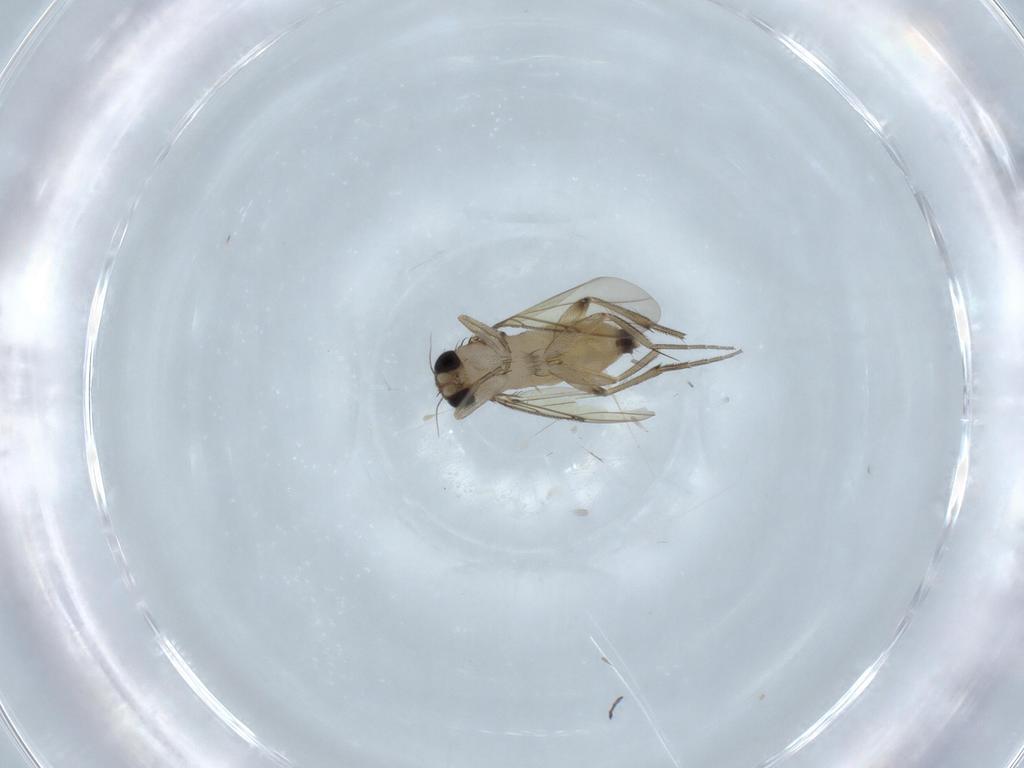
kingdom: Animalia
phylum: Arthropoda
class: Insecta
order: Diptera
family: Phoridae
